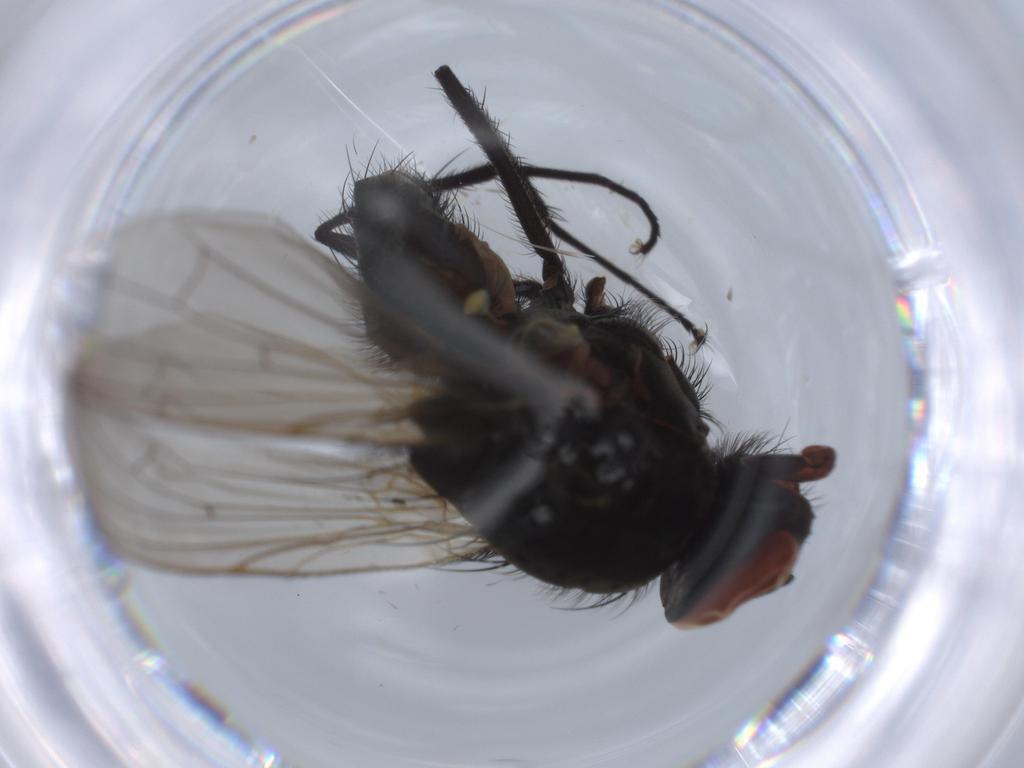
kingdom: Animalia
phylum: Arthropoda
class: Insecta
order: Diptera
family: Anthomyiidae
